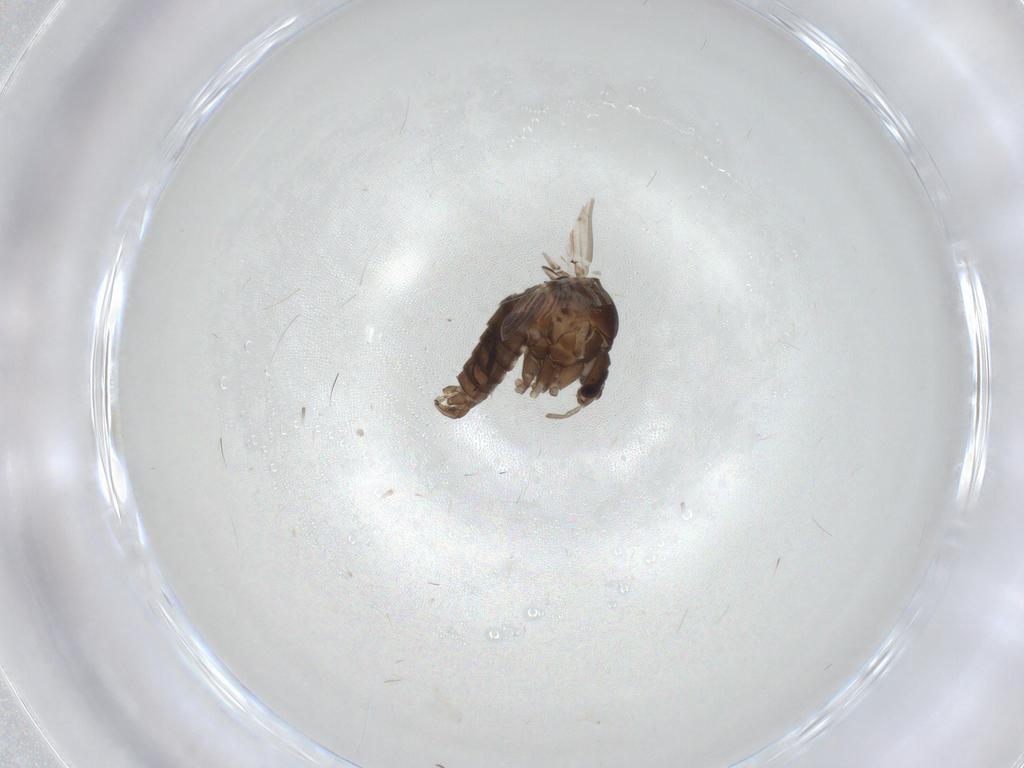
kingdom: Animalia
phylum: Arthropoda
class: Insecta
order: Diptera
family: Psychodidae
